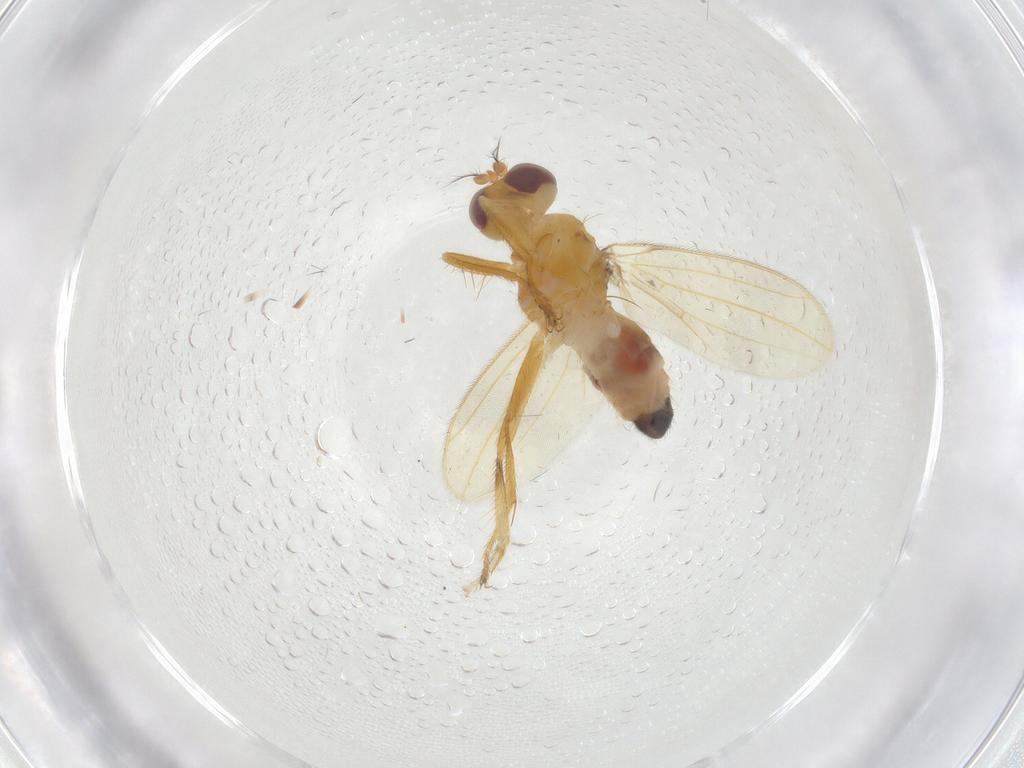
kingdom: Animalia
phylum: Arthropoda
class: Insecta
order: Diptera
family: Periscelididae
